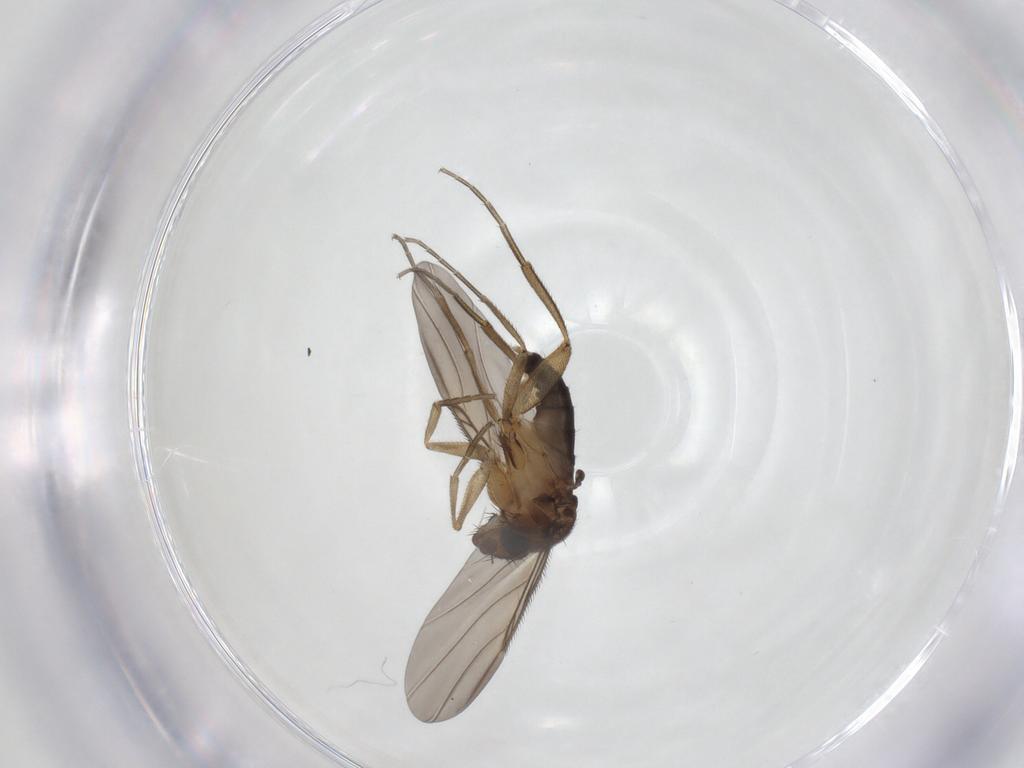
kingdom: Animalia
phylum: Arthropoda
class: Insecta
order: Diptera
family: Phoridae
